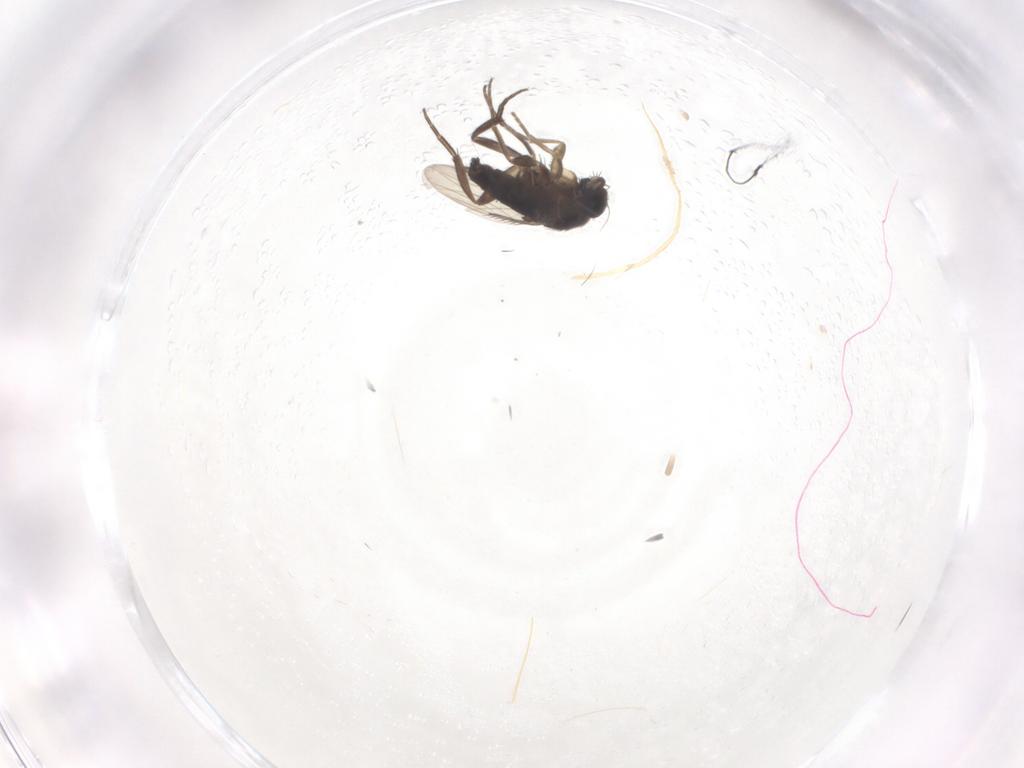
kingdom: Animalia
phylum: Arthropoda
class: Insecta
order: Diptera
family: Phoridae
